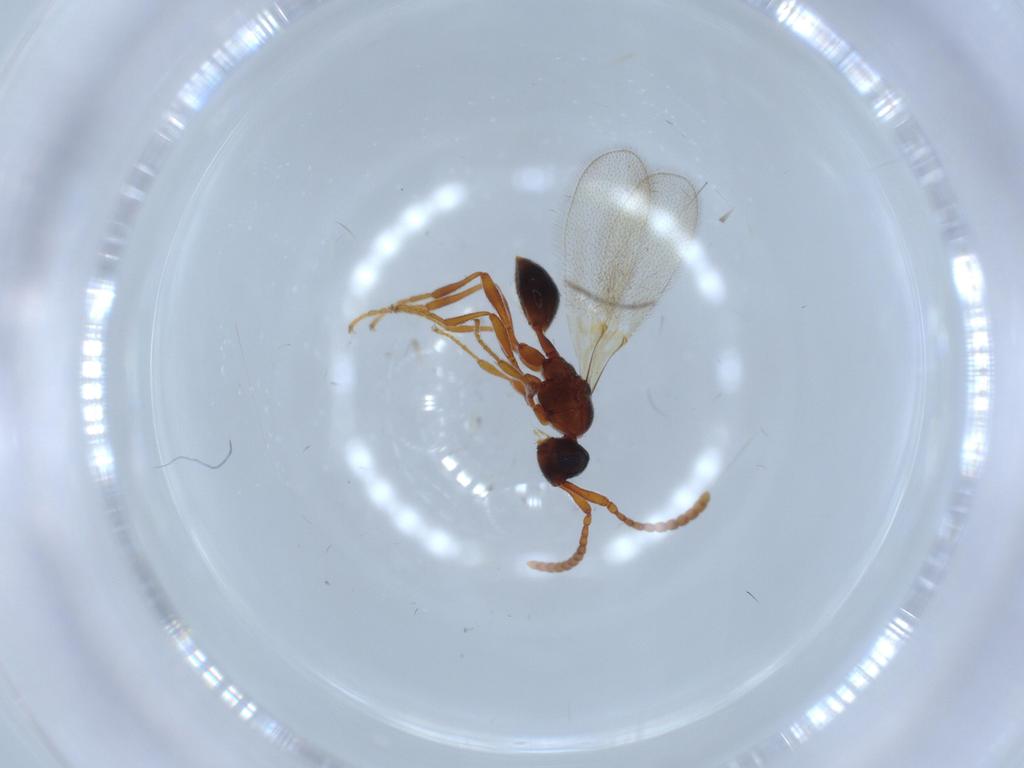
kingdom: Animalia
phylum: Arthropoda
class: Insecta
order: Hymenoptera
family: Diapriidae
